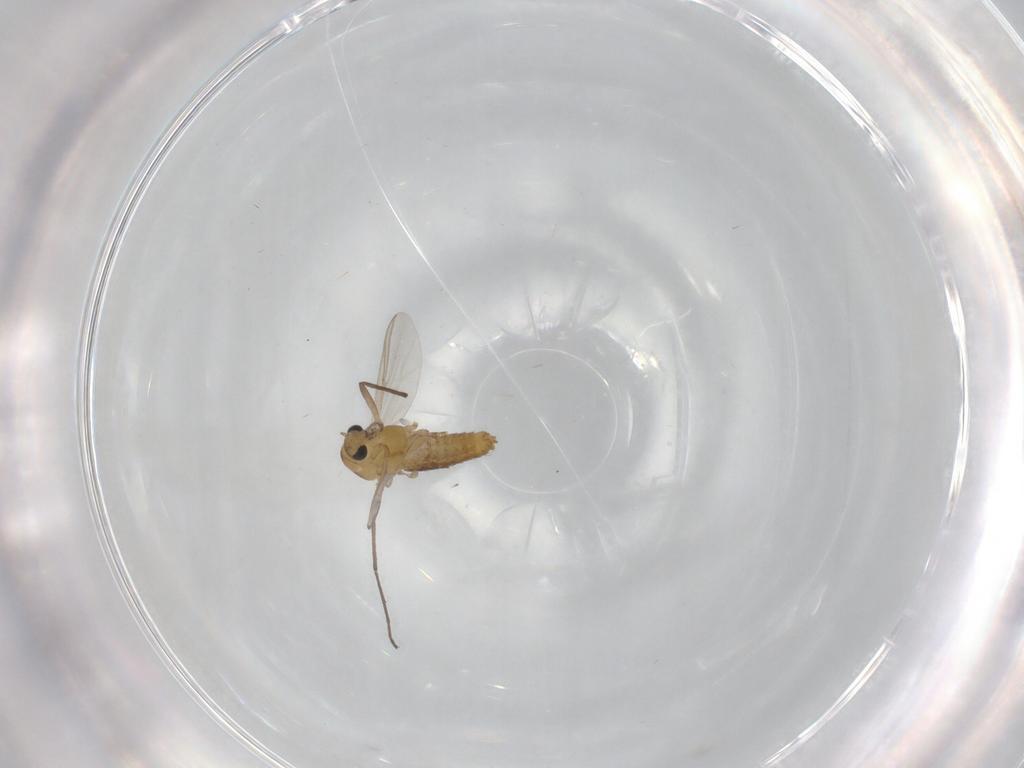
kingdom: Animalia
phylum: Arthropoda
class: Insecta
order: Diptera
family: Chironomidae
